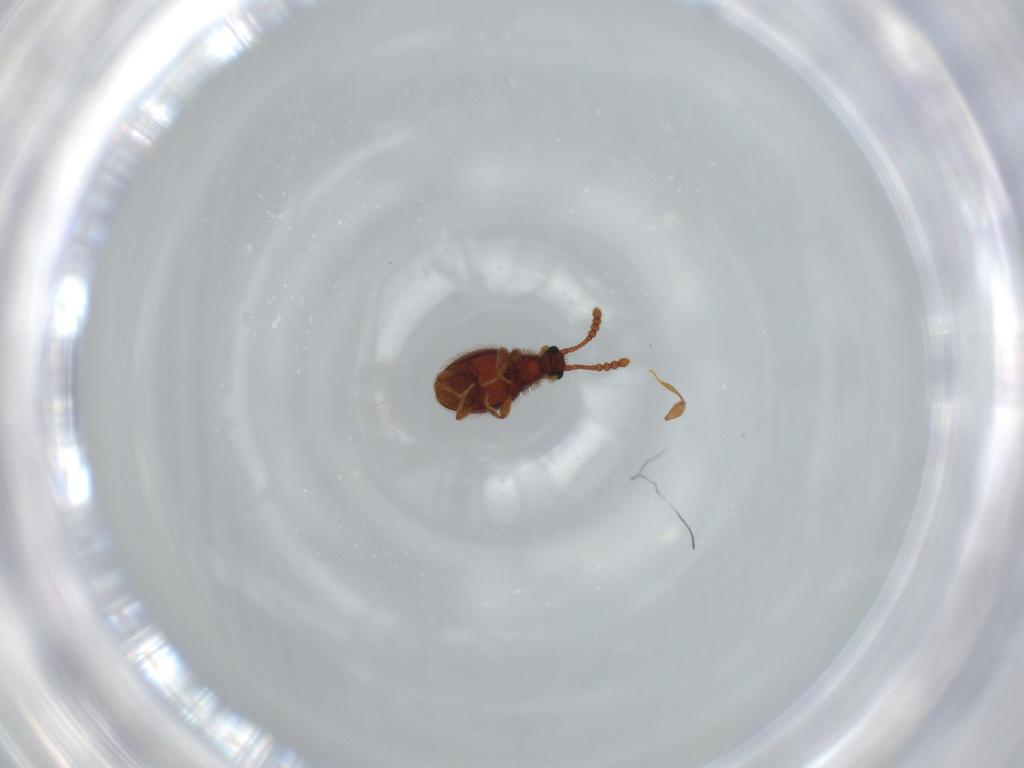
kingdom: Animalia
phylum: Arthropoda
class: Insecta
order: Coleoptera
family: Staphylinidae
